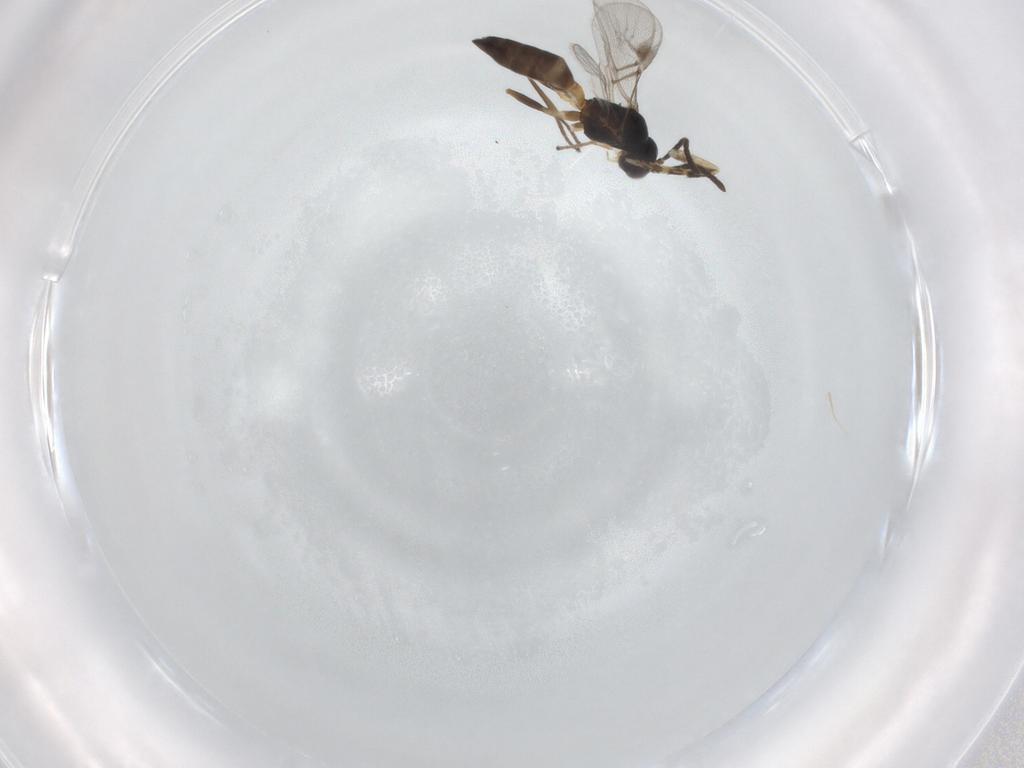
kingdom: Animalia
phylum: Arthropoda
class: Insecta
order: Hymenoptera
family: Braconidae
